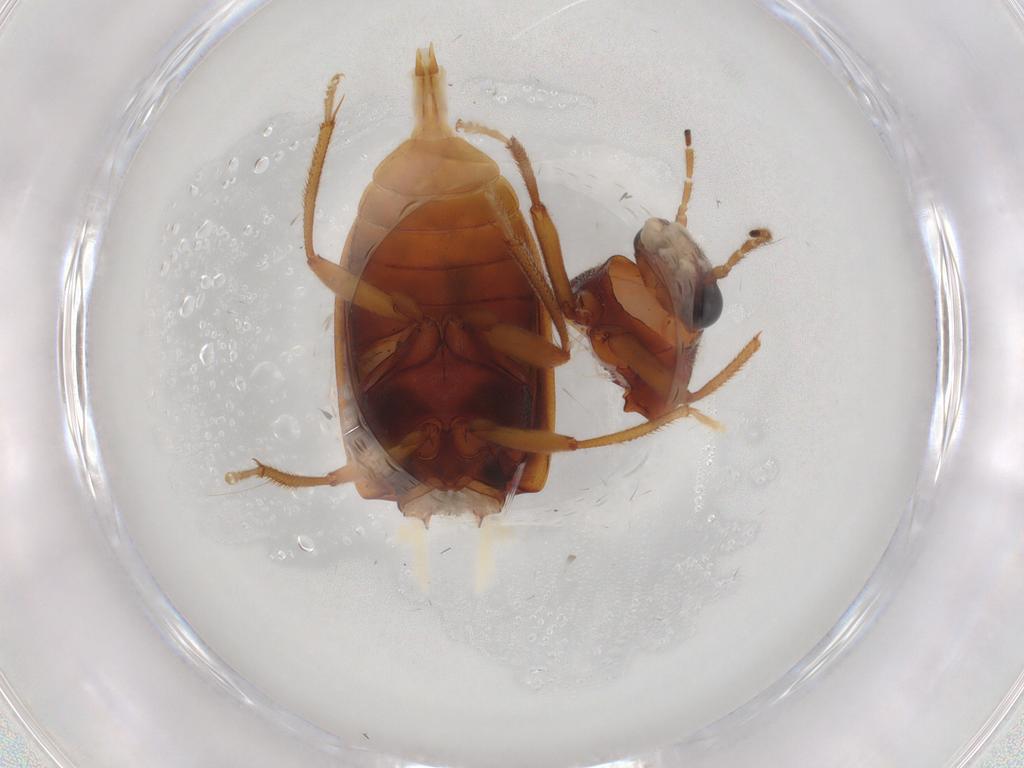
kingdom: Animalia
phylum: Arthropoda
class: Insecta
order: Coleoptera
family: Ptilodactylidae
